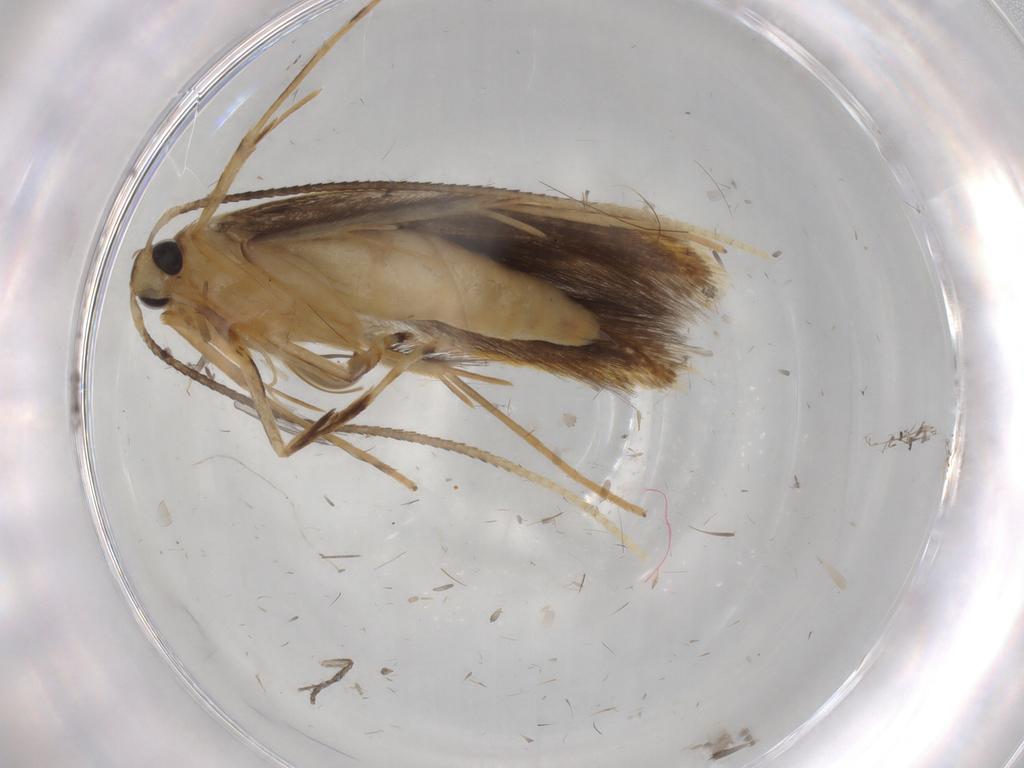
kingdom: Animalia
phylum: Arthropoda
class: Insecta
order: Lepidoptera
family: Pterolonchidae
